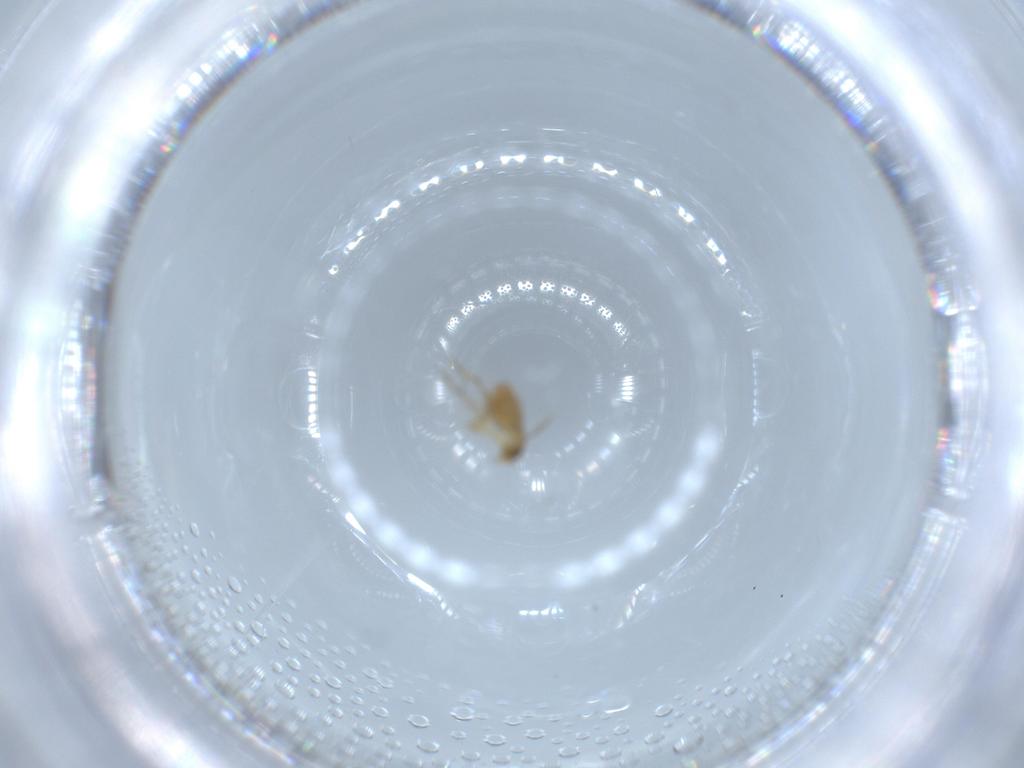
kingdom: Animalia
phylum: Arthropoda
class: Insecta
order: Diptera
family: Phoridae
